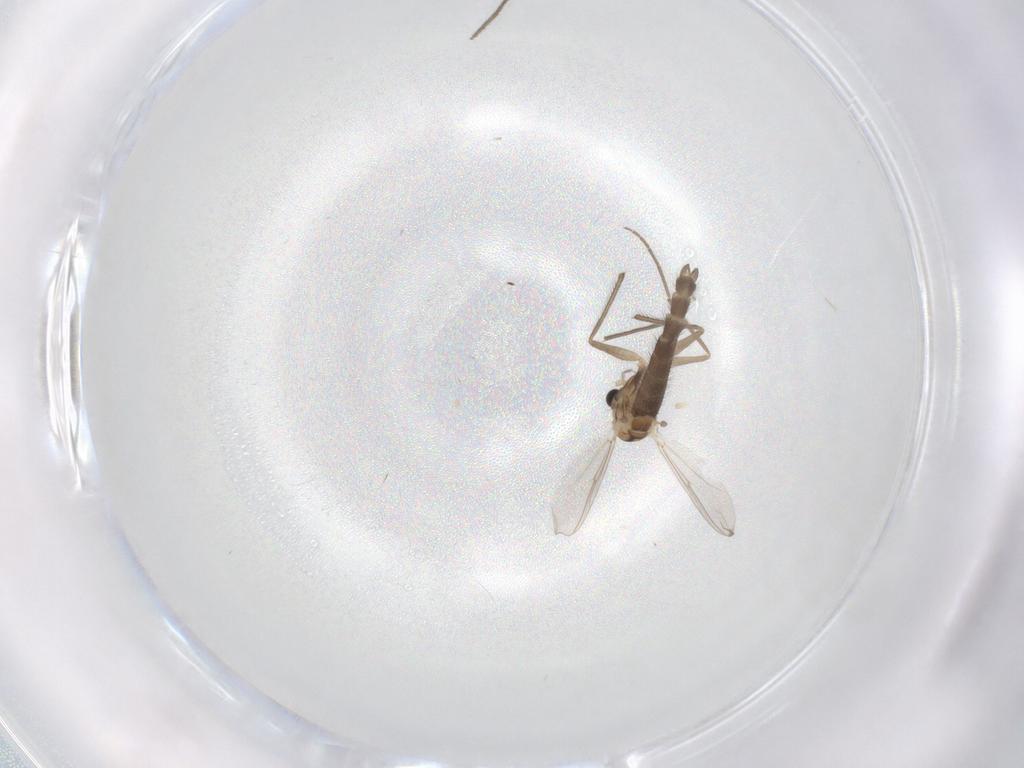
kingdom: Animalia
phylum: Arthropoda
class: Insecta
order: Diptera
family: Chironomidae
